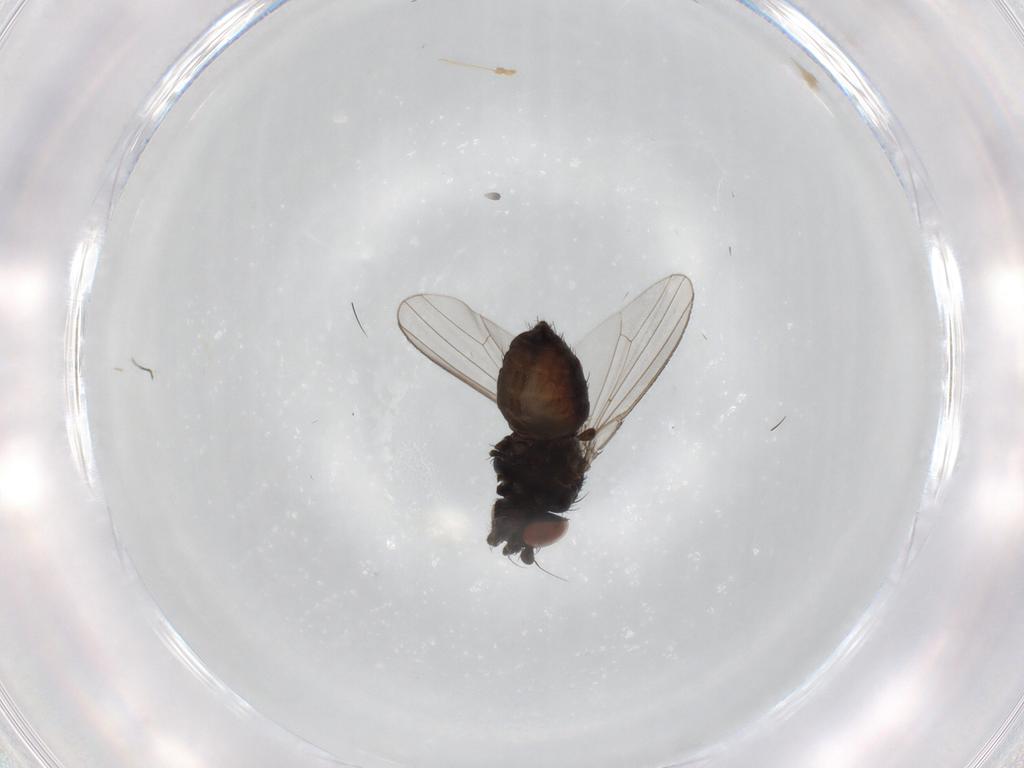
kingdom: Animalia
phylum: Arthropoda
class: Insecta
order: Diptera
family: Milichiidae
